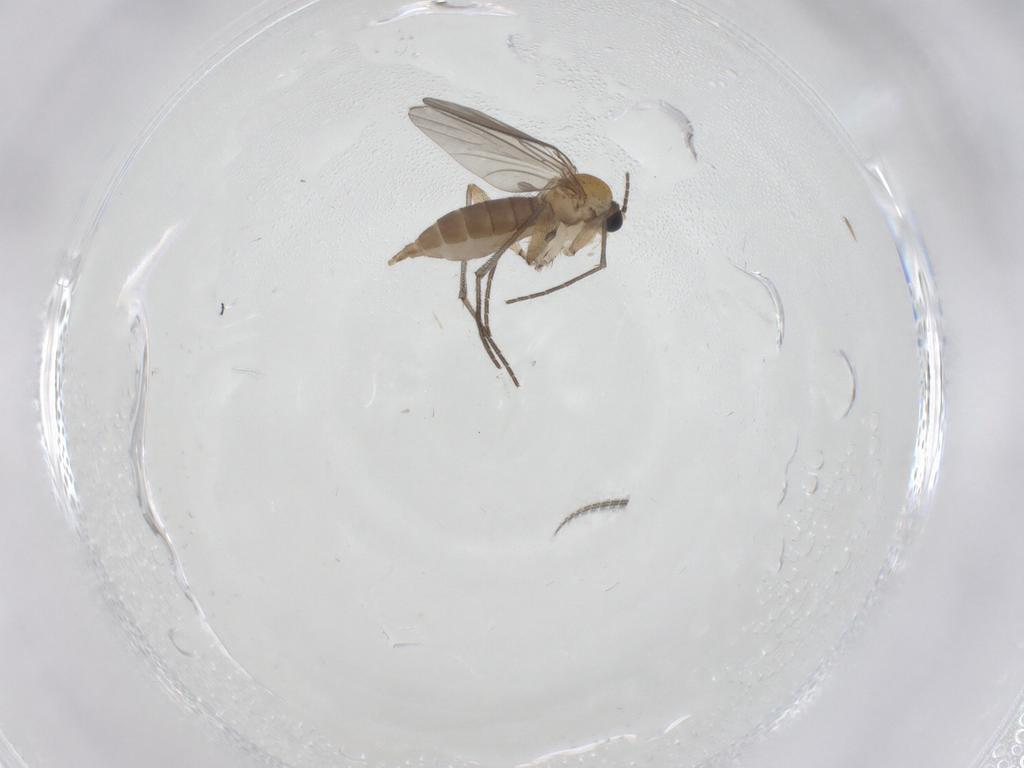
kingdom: Animalia
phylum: Arthropoda
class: Insecta
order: Diptera
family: Sciaridae
